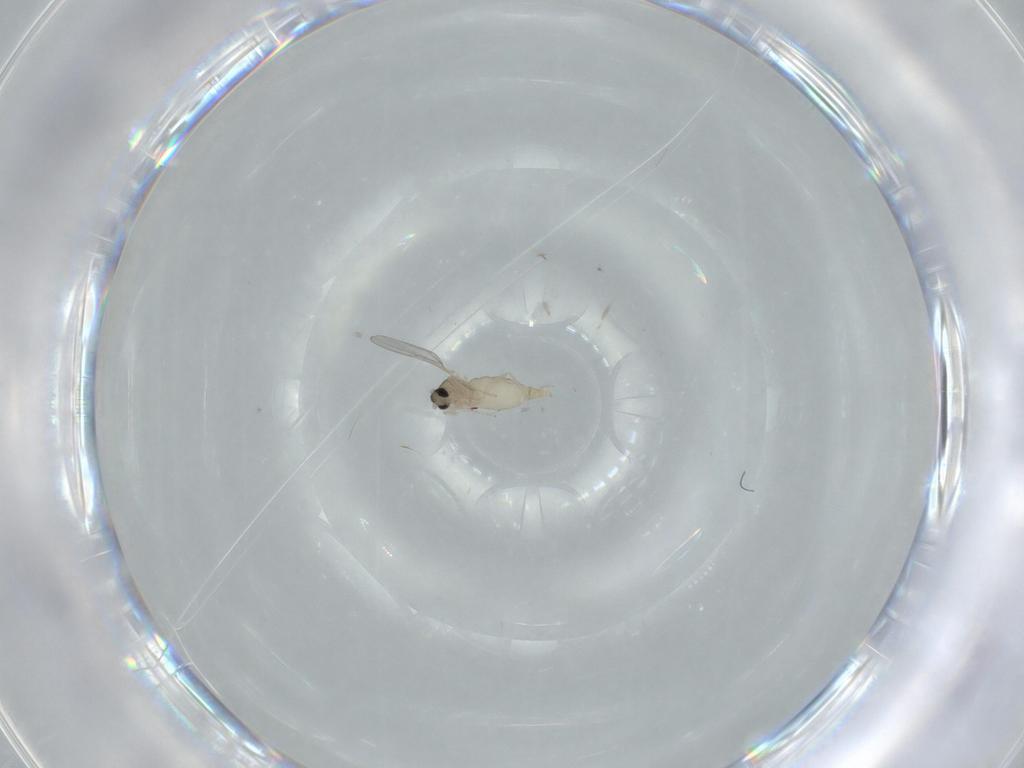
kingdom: Animalia
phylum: Arthropoda
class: Insecta
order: Diptera
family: Cecidomyiidae
